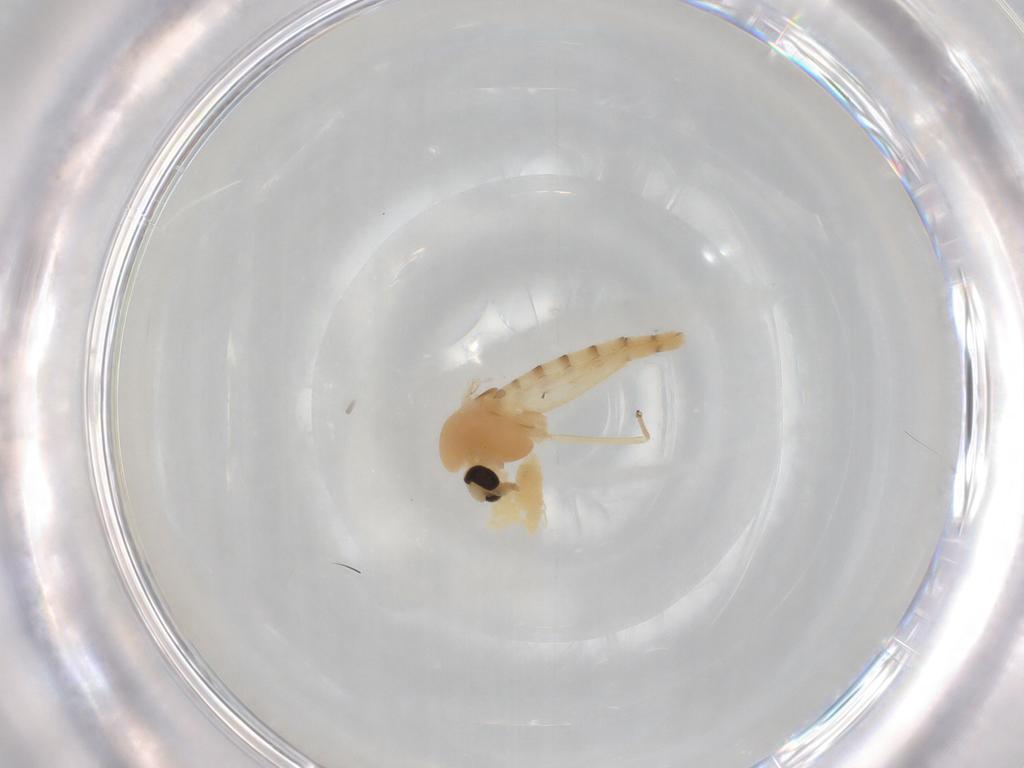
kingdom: Animalia
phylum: Arthropoda
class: Insecta
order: Diptera
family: Chironomidae
